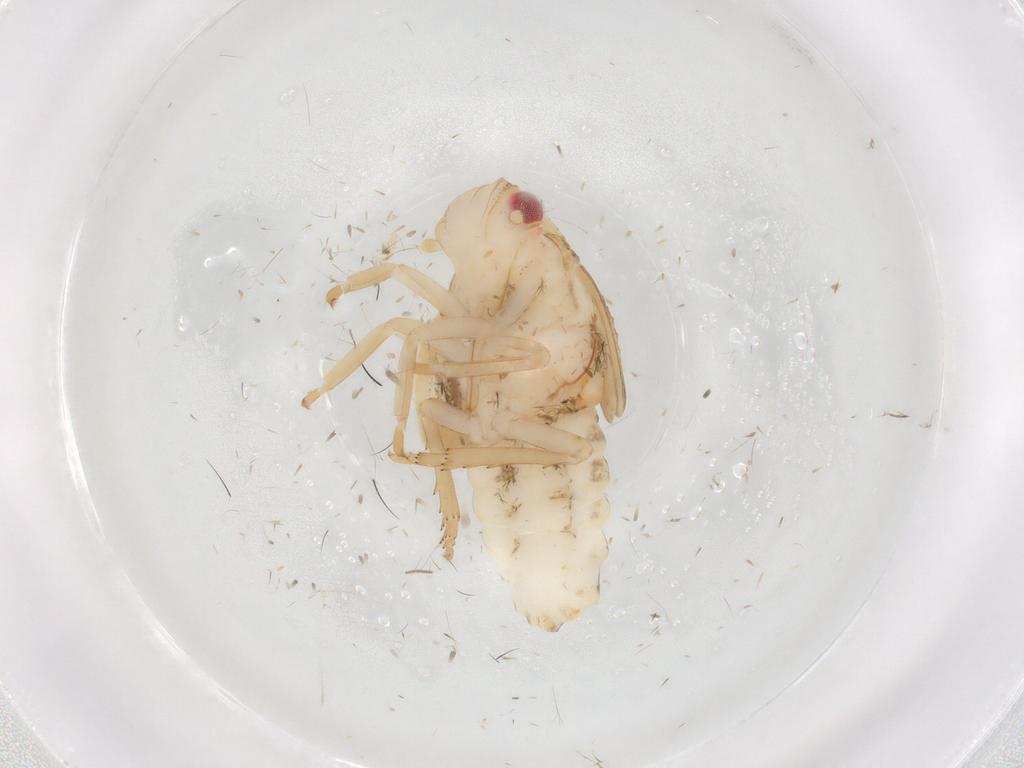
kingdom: Animalia
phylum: Arthropoda
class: Insecta
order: Hemiptera
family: Flatidae
